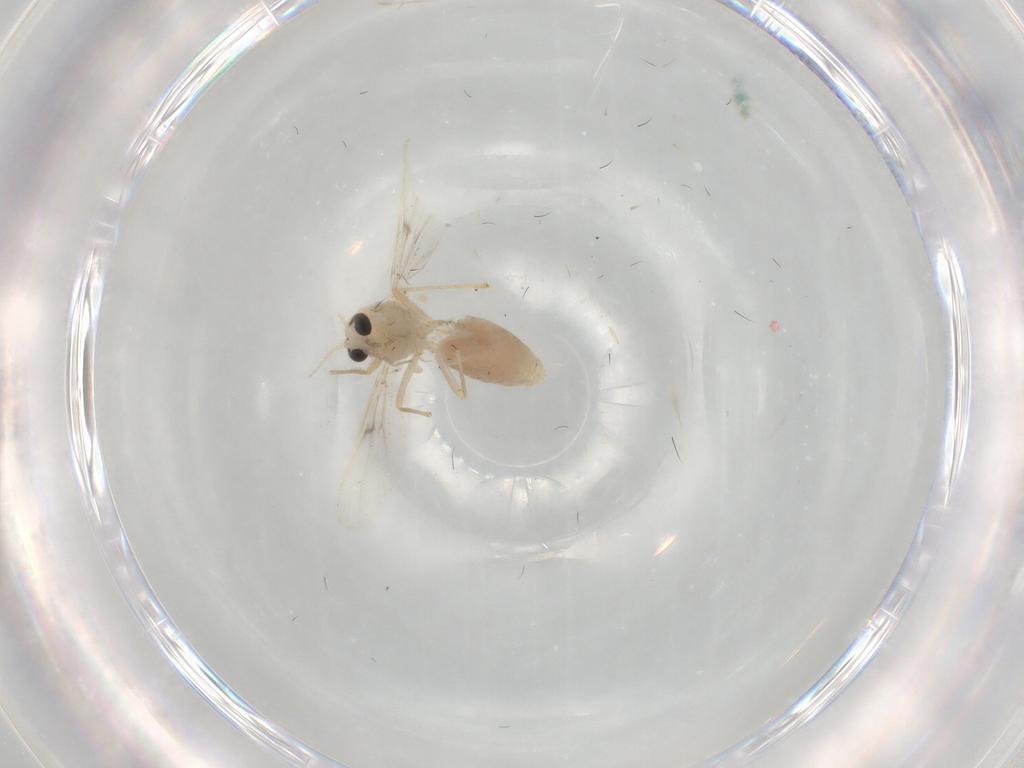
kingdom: Animalia
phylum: Arthropoda
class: Insecta
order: Diptera
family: Chironomidae
